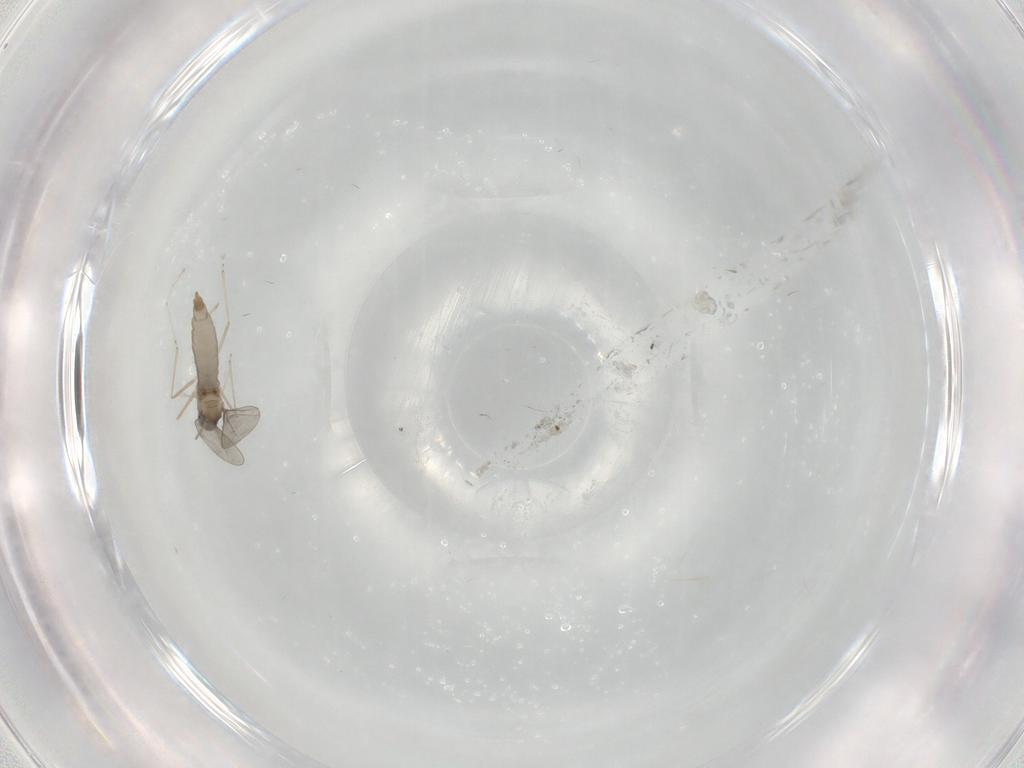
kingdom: Animalia
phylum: Arthropoda
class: Insecta
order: Diptera
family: Cecidomyiidae
